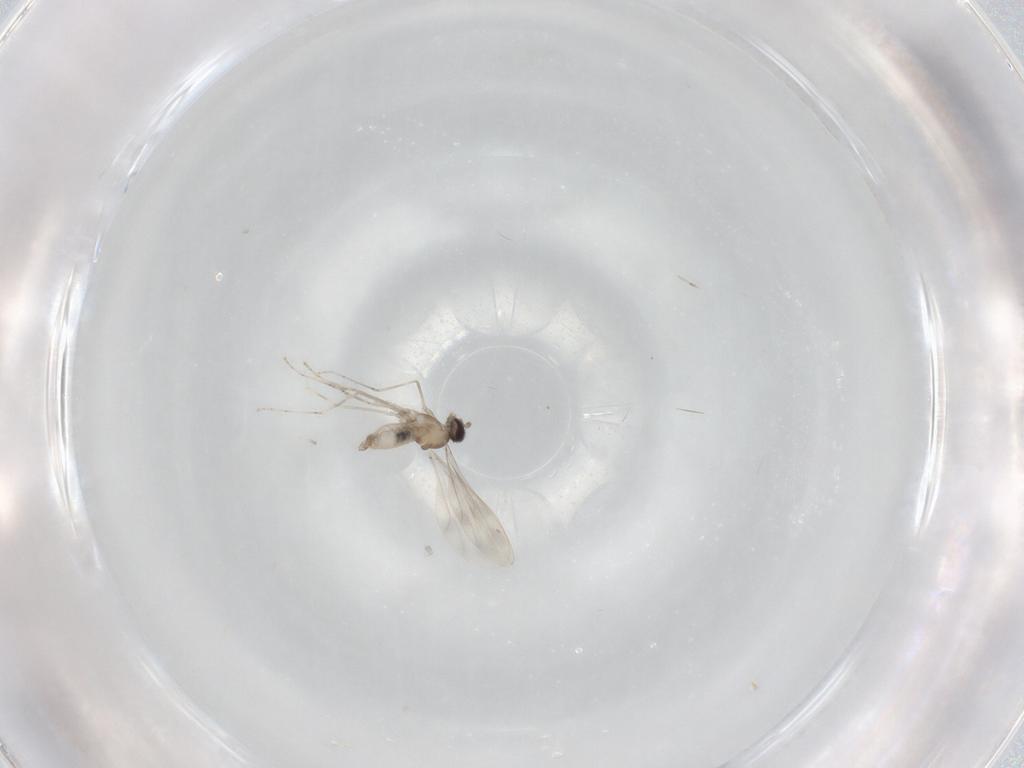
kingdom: Animalia
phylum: Arthropoda
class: Insecta
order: Diptera
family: Cecidomyiidae
